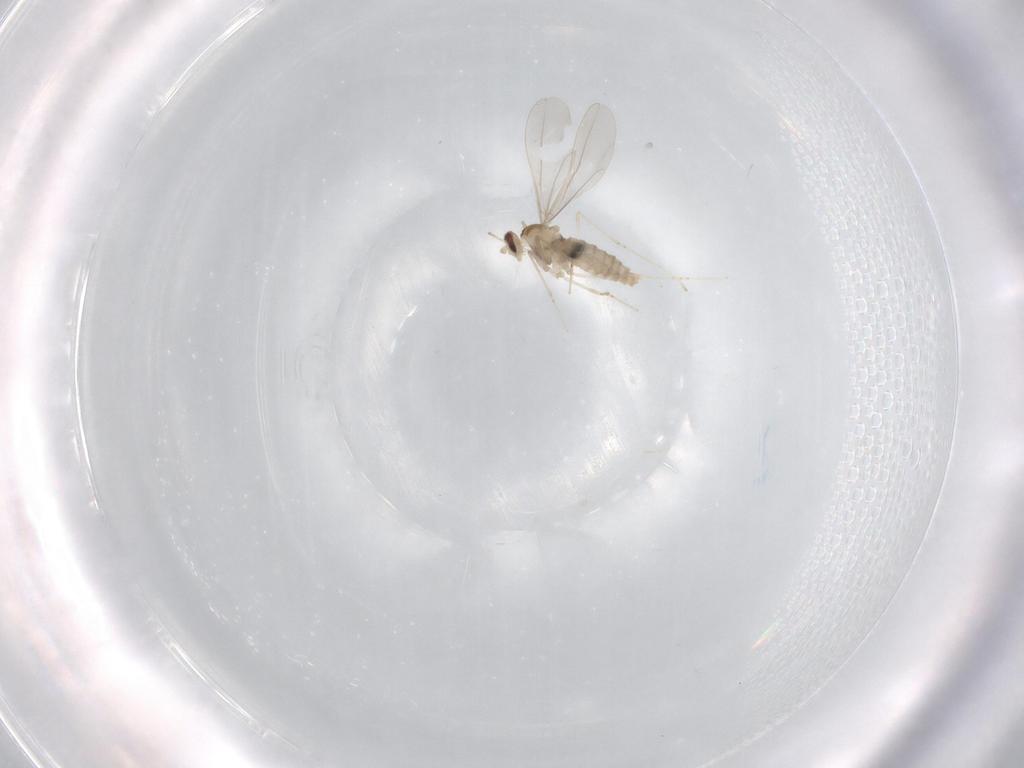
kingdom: Animalia
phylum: Arthropoda
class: Insecta
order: Diptera
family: Cecidomyiidae
